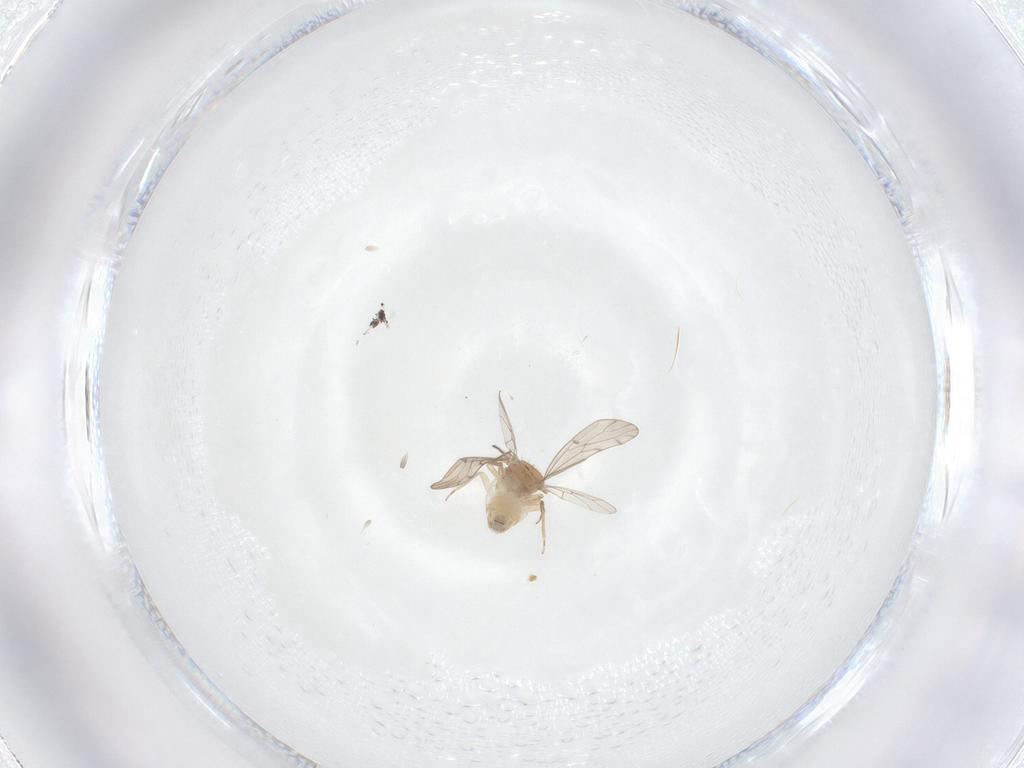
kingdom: Animalia
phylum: Arthropoda
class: Insecta
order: Psocodea
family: Ectopsocidae
